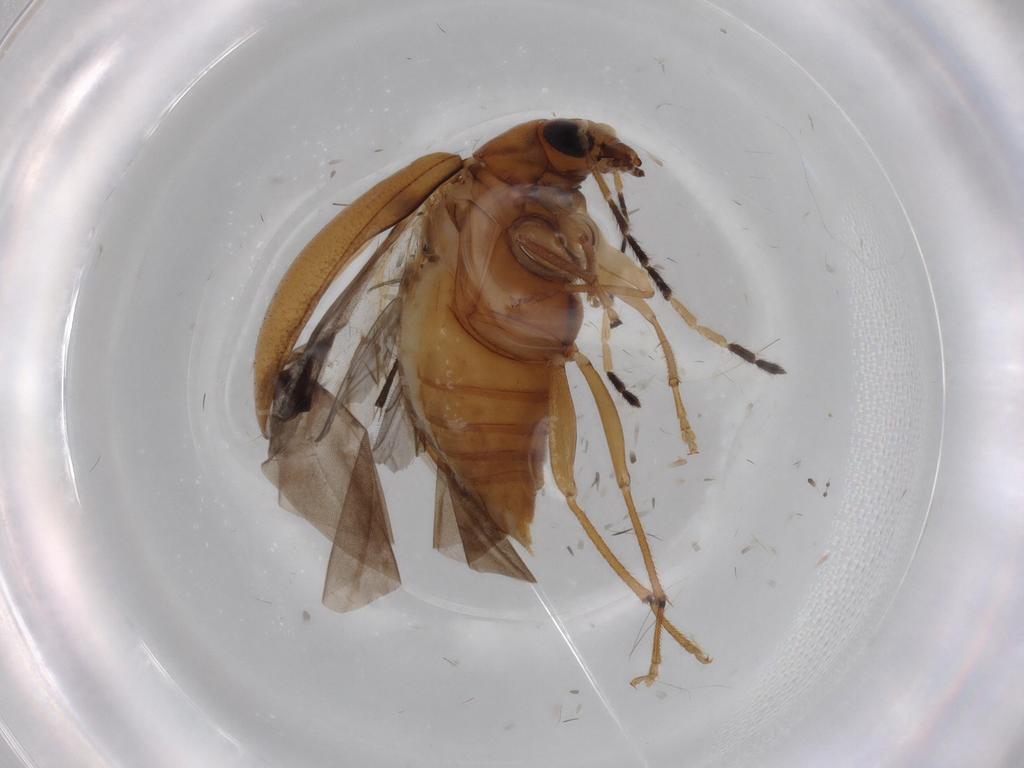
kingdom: Animalia
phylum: Arthropoda
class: Insecta
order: Coleoptera
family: Chrysomelidae
